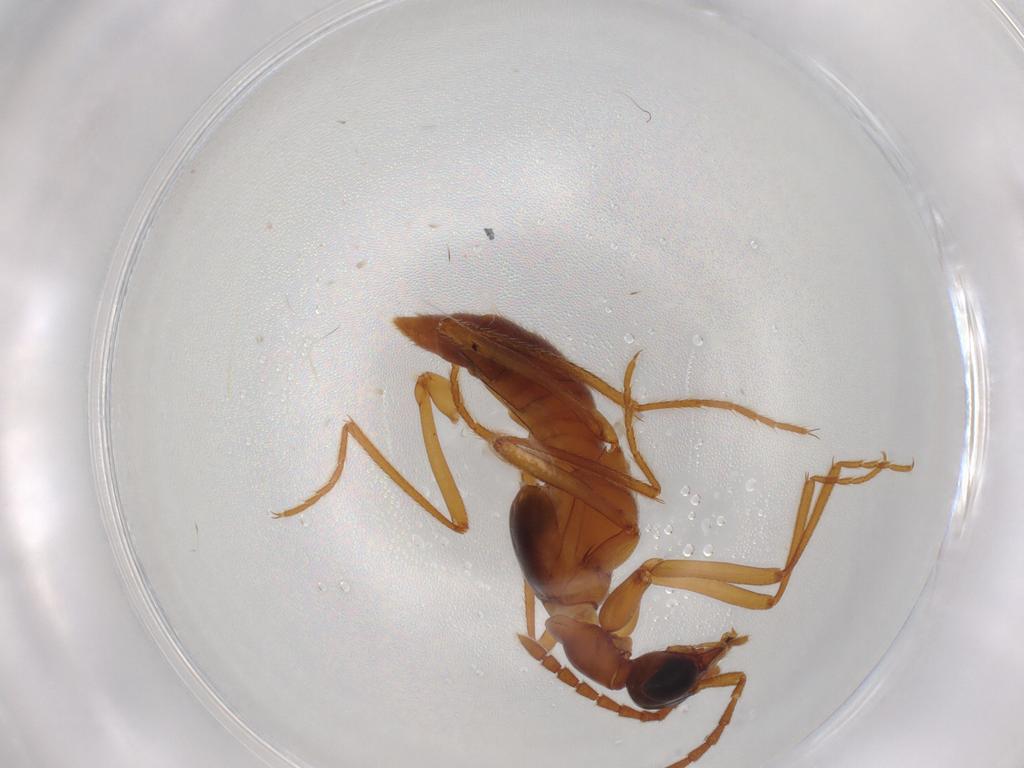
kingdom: Animalia
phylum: Arthropoda
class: Insecta
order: Coleoptera
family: Staphylinidae
